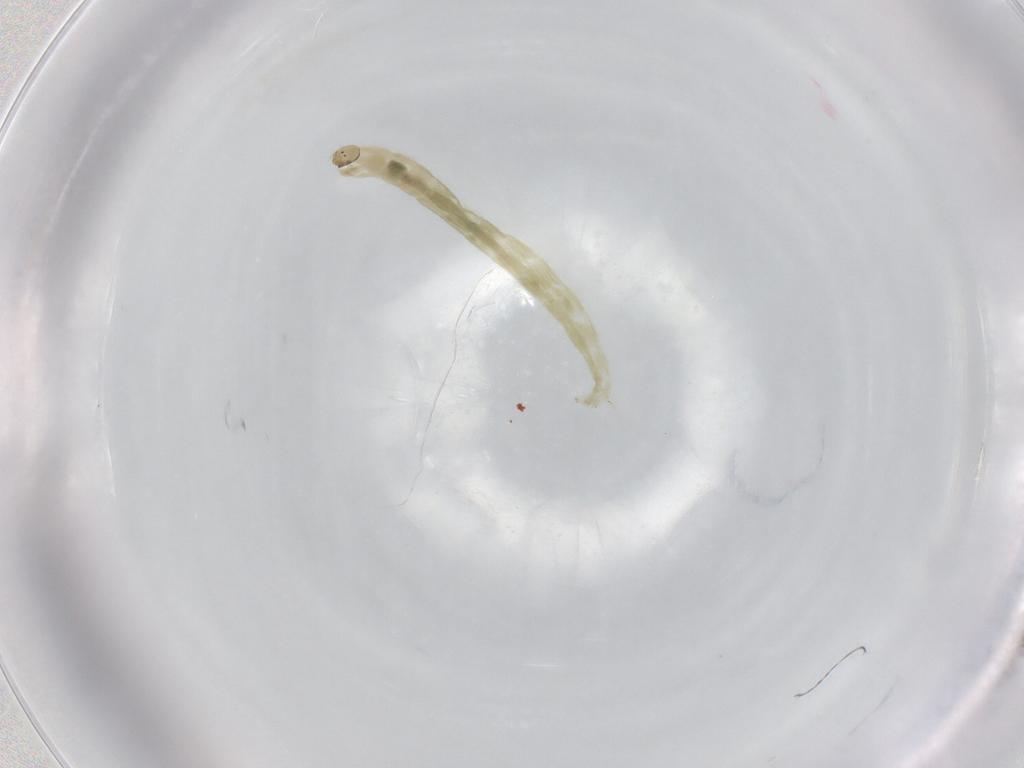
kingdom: Animalia
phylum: Arthropoda
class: Insecta
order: Diptera
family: Chironomidae
